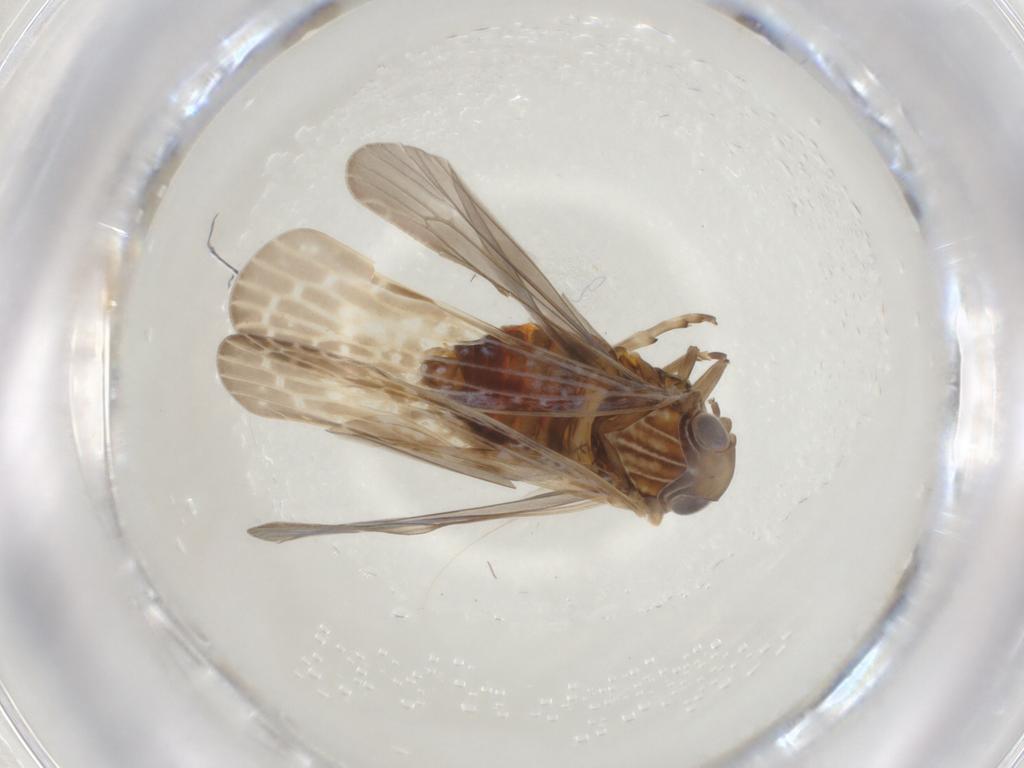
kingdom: Animalia
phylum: Arthropoda
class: Insecta
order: Hemiptera
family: Achilidae
